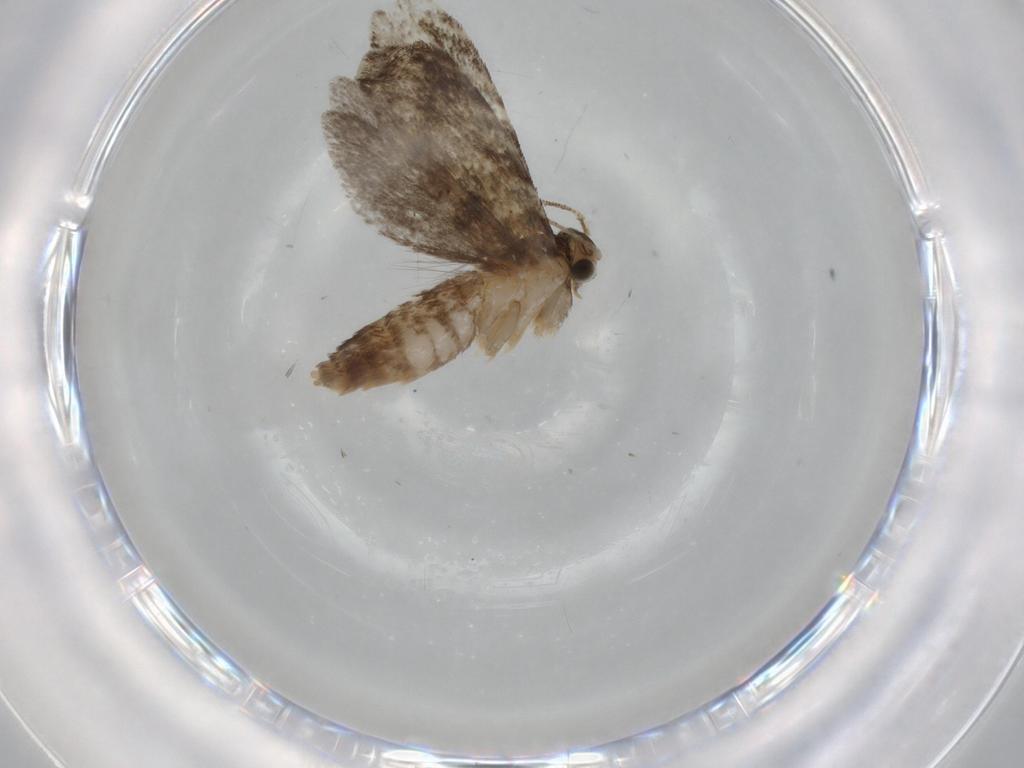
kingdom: Animalia
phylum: Arthropoda
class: Insecta
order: Lepidoptera
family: Tineidae
